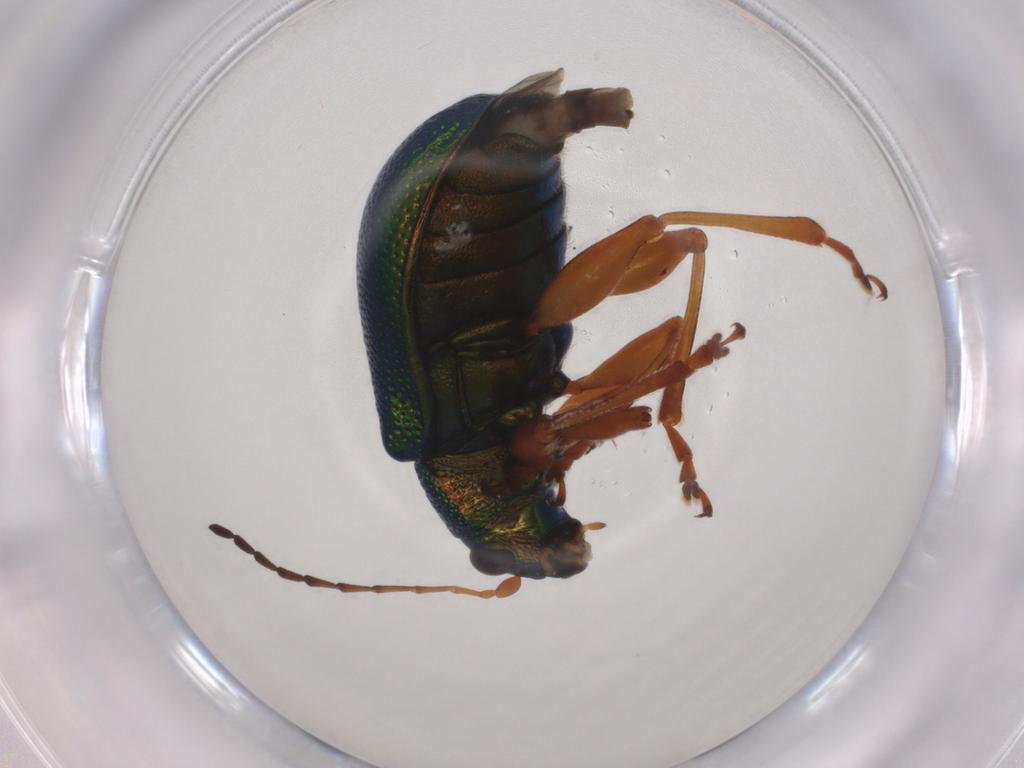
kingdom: Animalia
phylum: Arthropoda
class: Insecta
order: Coleoptera
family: Chrysomelidae
